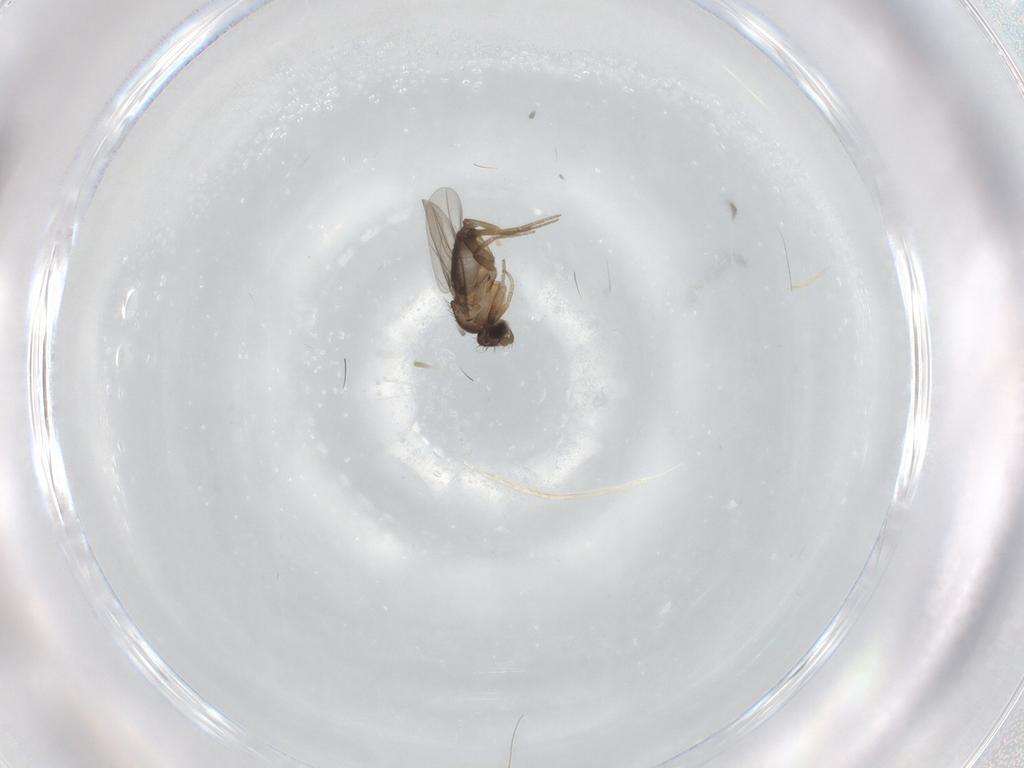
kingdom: Animalia
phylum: Arthropoda
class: Insecta
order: Diptera
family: Phoridae
